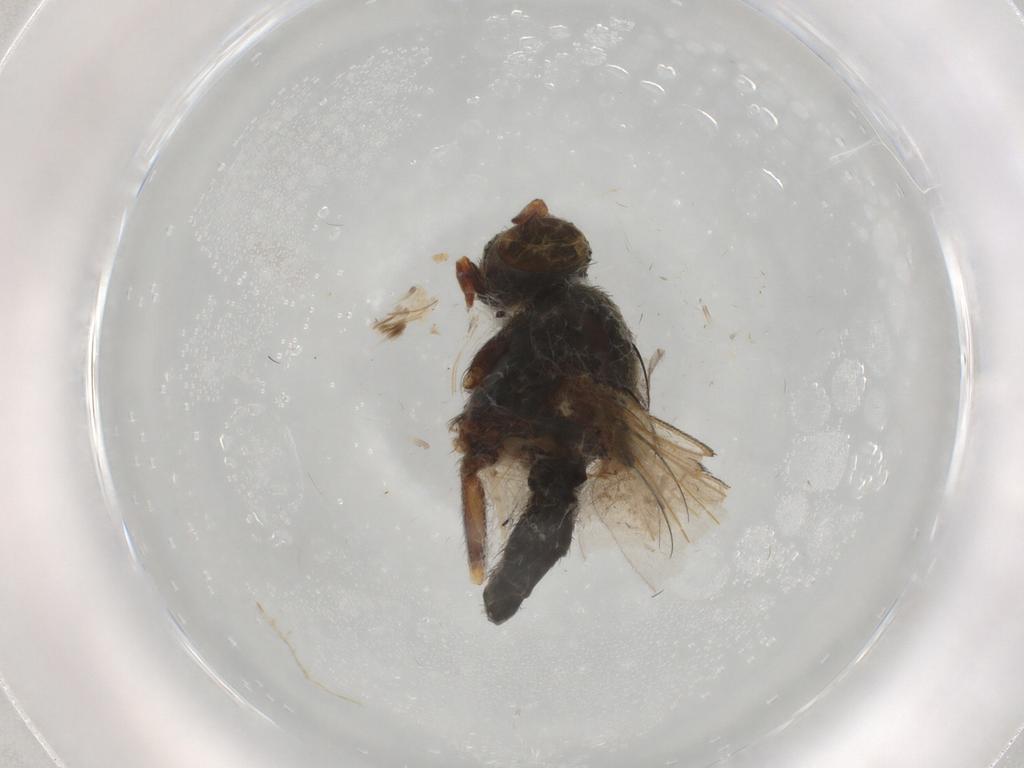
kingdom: Animalia
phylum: Arthropoda
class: Insecta
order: Diptera
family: Ephydridae
